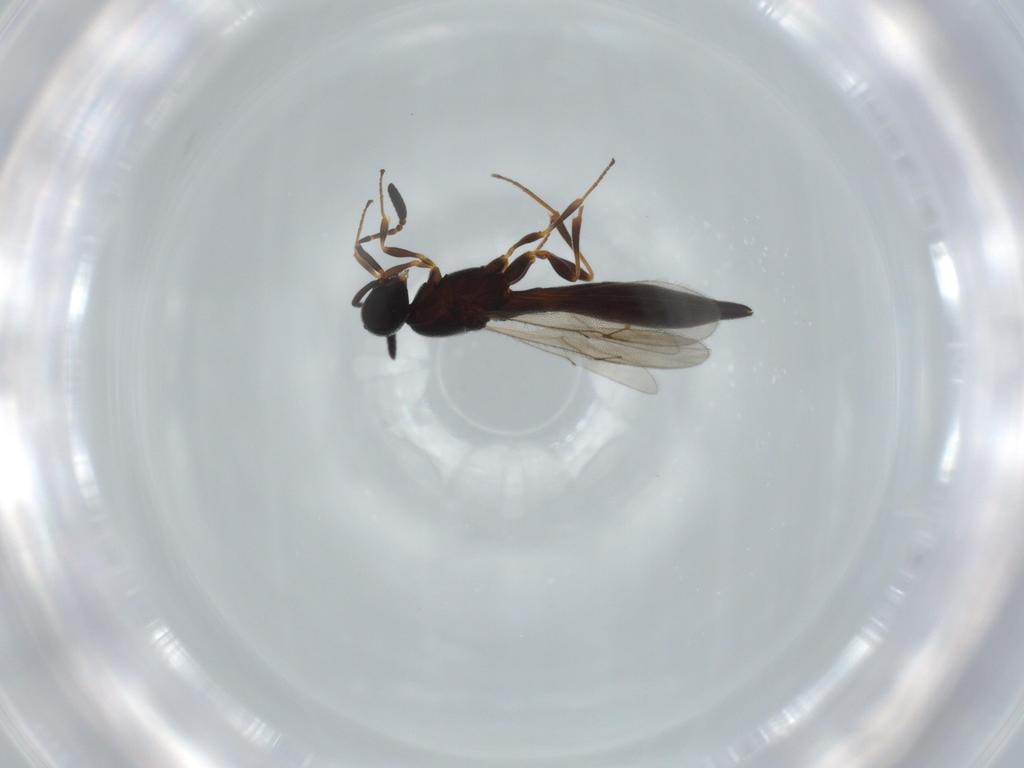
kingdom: Animalia
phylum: Arthropoda
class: Insecta
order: Hymenoptera
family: Scelionidae
